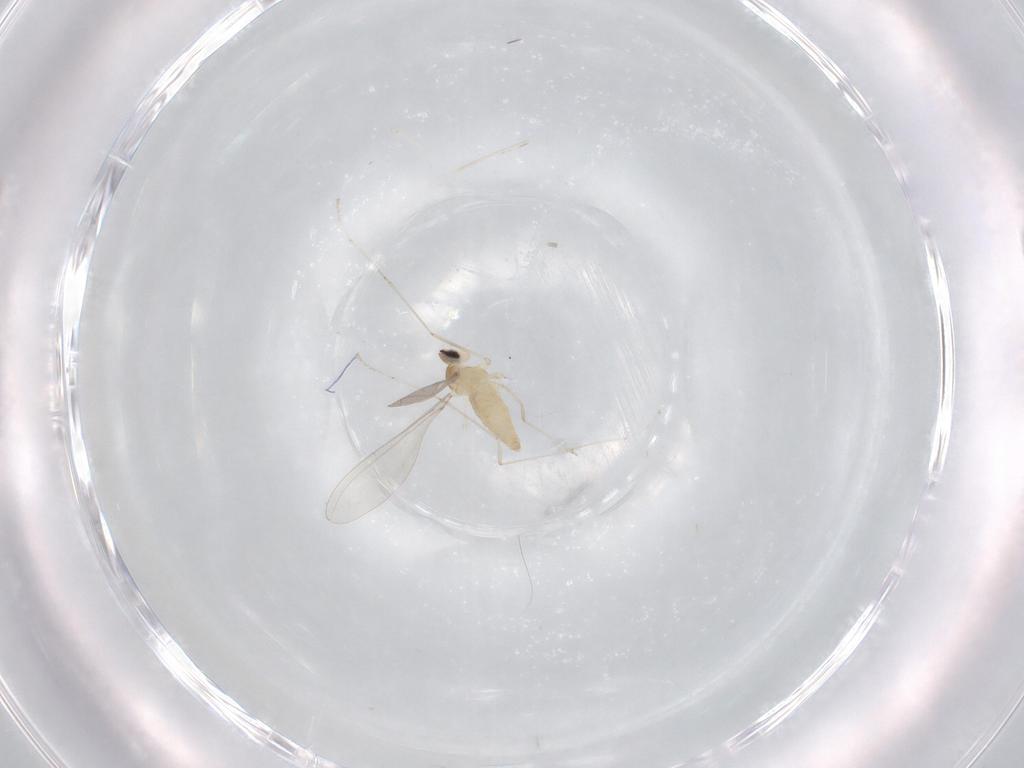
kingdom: Animalia
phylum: Arthropoda
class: Insecta
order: Diptera
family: Cecidomyiidae
